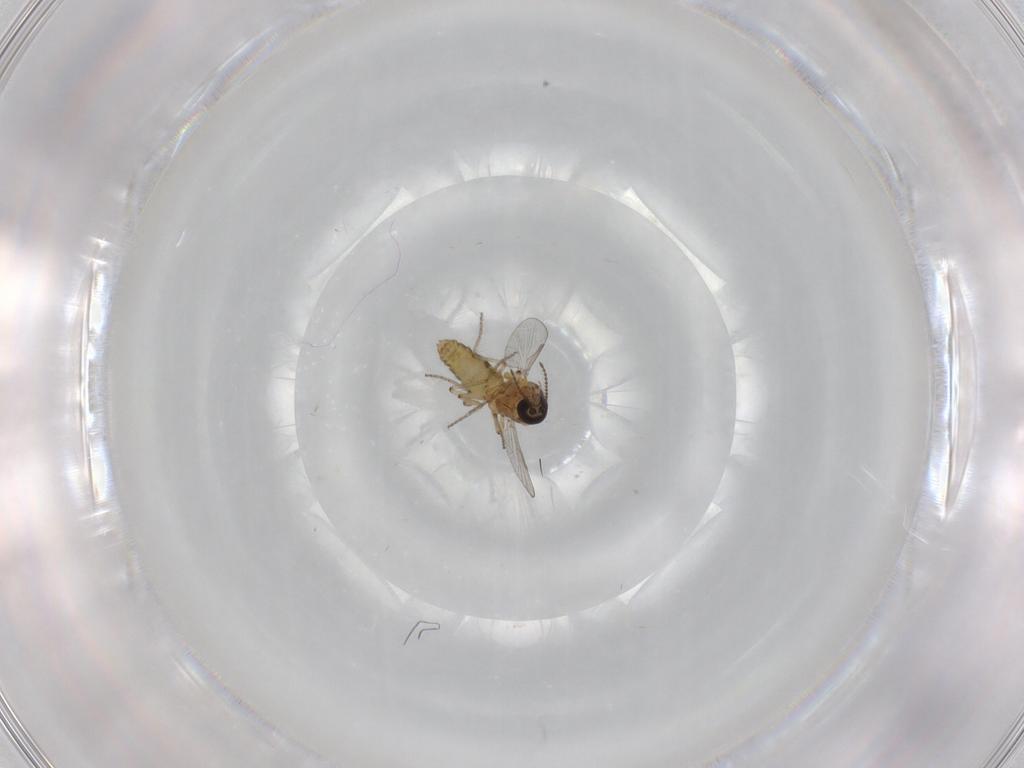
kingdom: Animalia
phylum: Arthropoda
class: Insecta
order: Diptera
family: Ceratopogonidae
